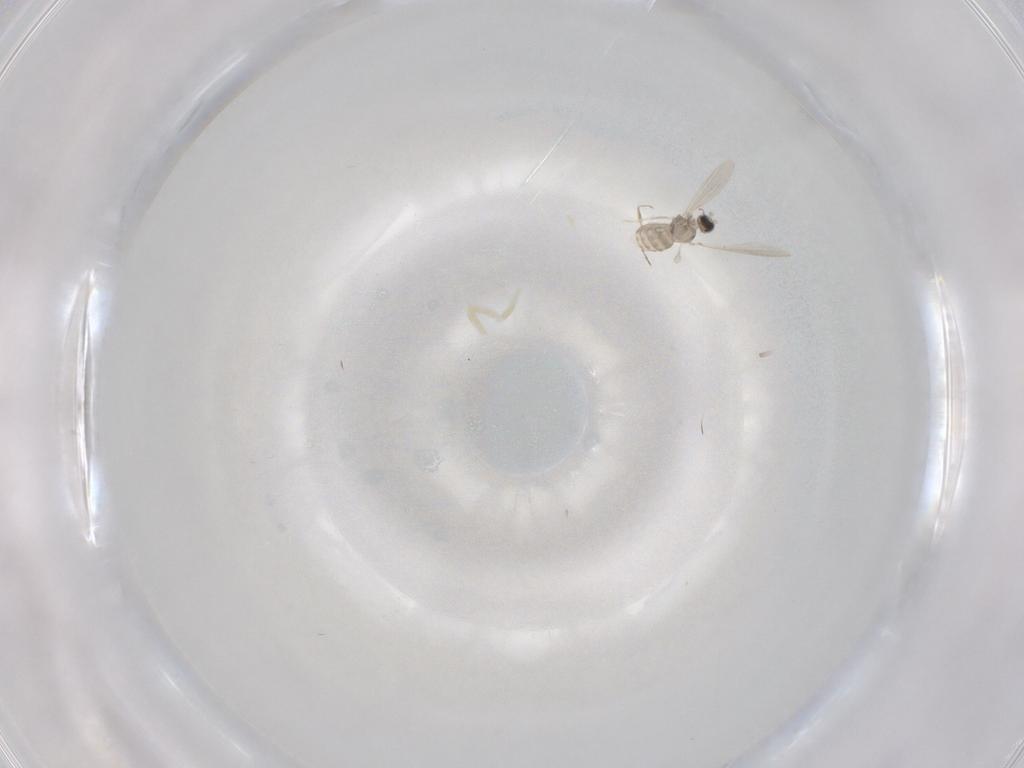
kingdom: Animalia
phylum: Arthropoda
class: Insecta
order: Diptera
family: Cecidomyiidae
